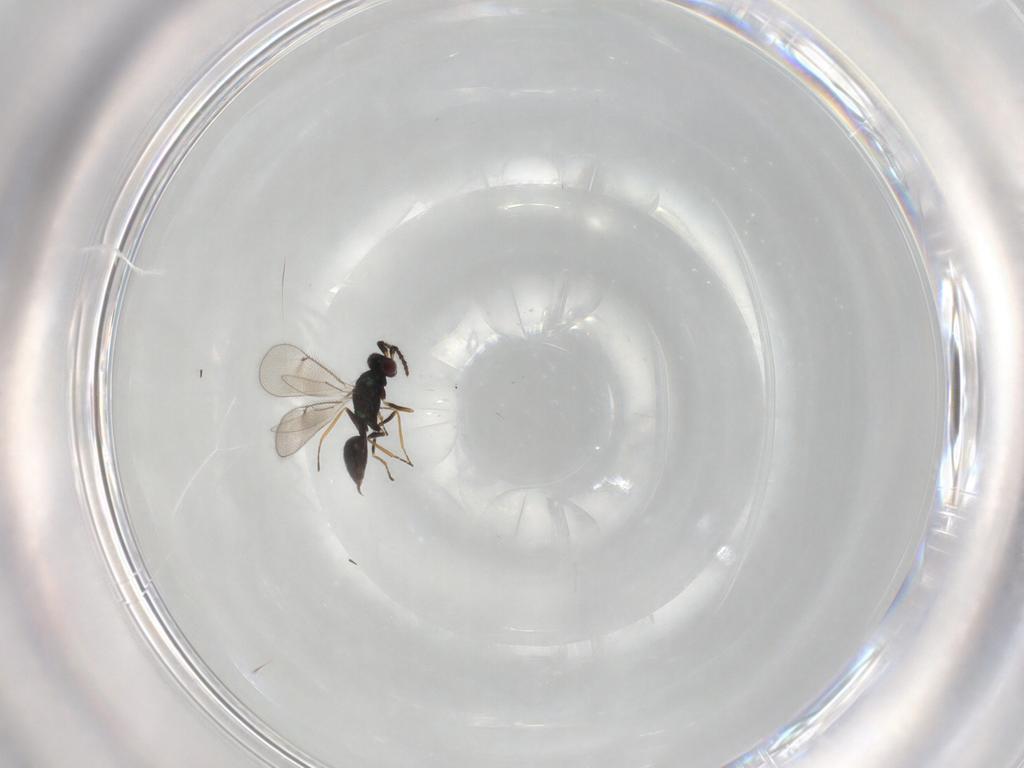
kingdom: Animalia
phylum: Arthropoda
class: Insecta
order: Hymenoptera
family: Eulophidae
